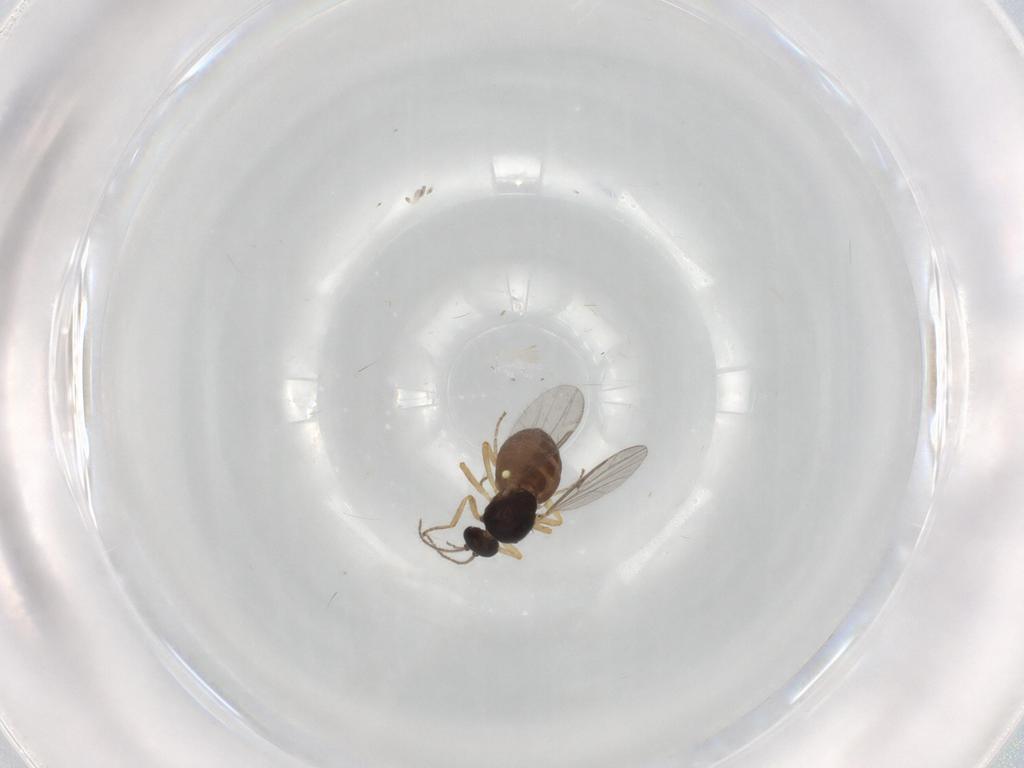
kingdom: Animalia
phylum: Arthropoda
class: Insecta
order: Diptera
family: Ceratopogonidae
